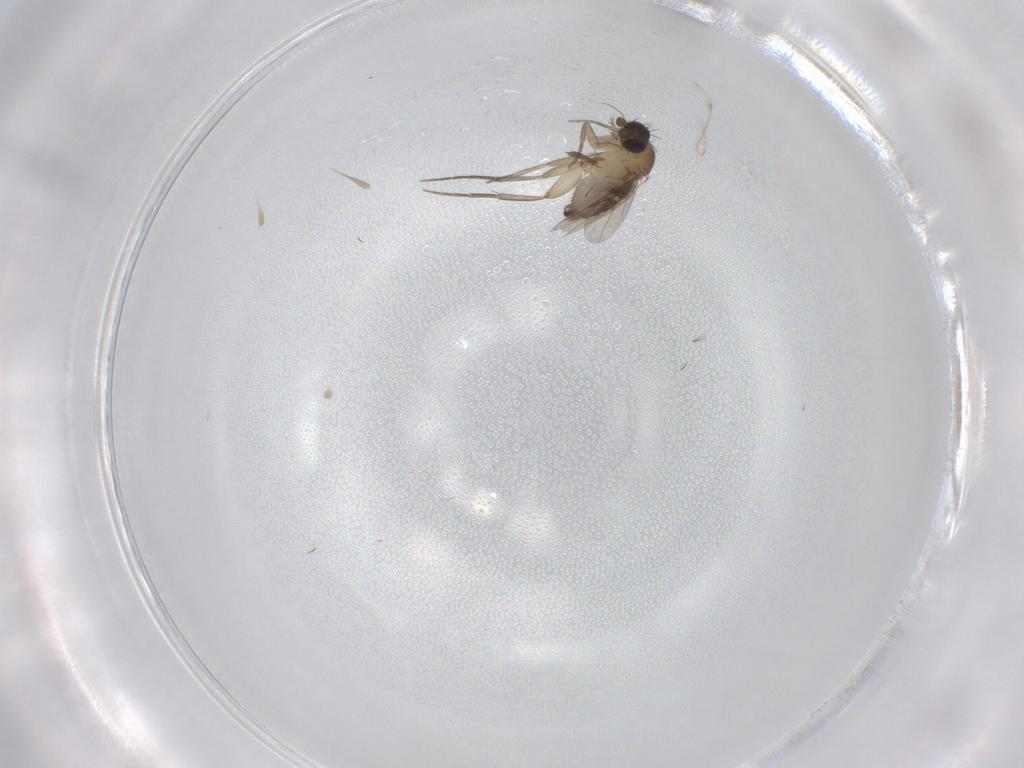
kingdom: Animalia
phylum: Arthropoda
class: Insecta
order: Diptera
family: Phoridae
